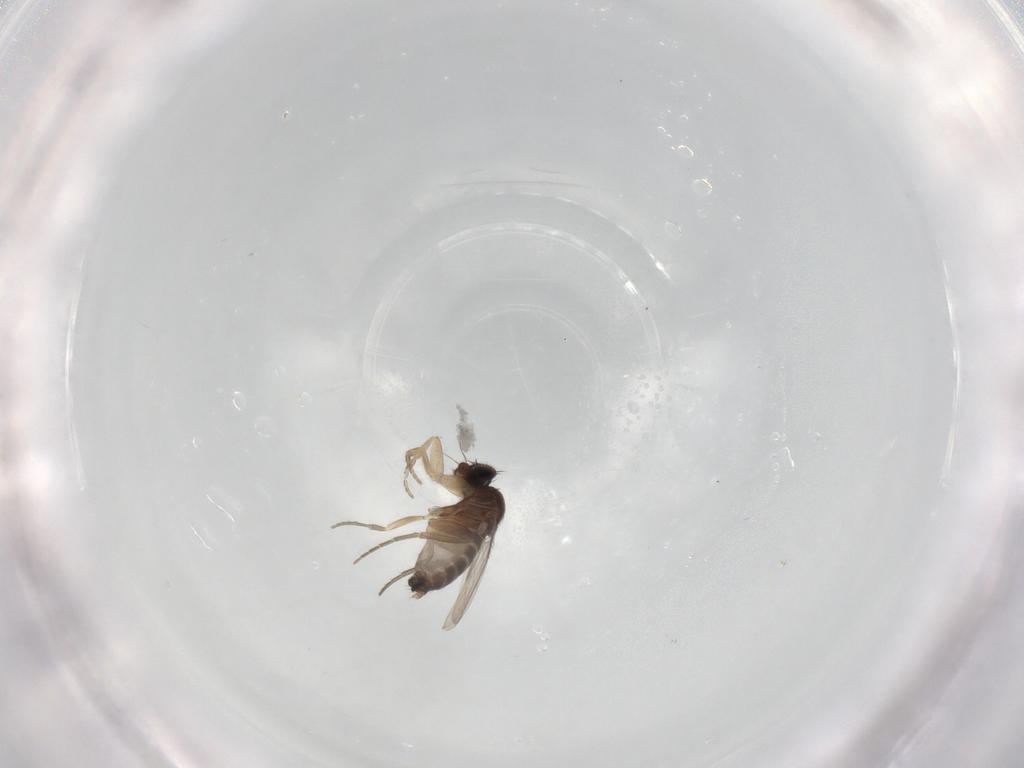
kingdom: Animalia
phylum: Arthropoda
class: Insecta
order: Diptera
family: Phoridae
